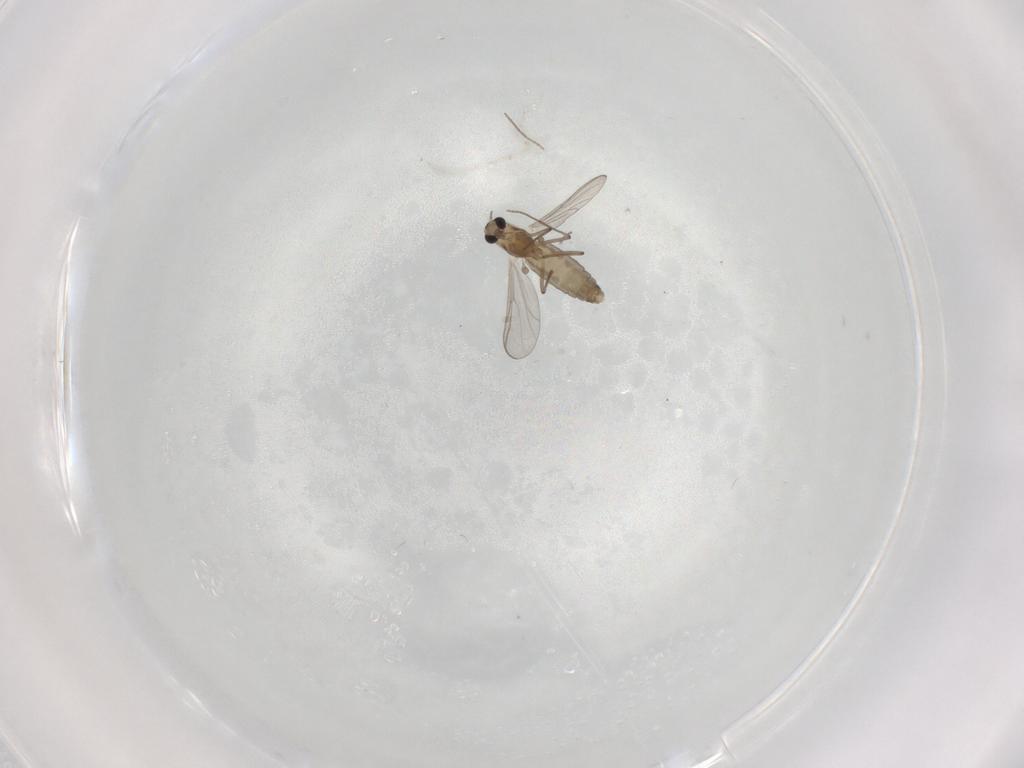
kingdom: Animalia
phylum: Arthropoda
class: Insecta
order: Diptera
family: Chironomidae
